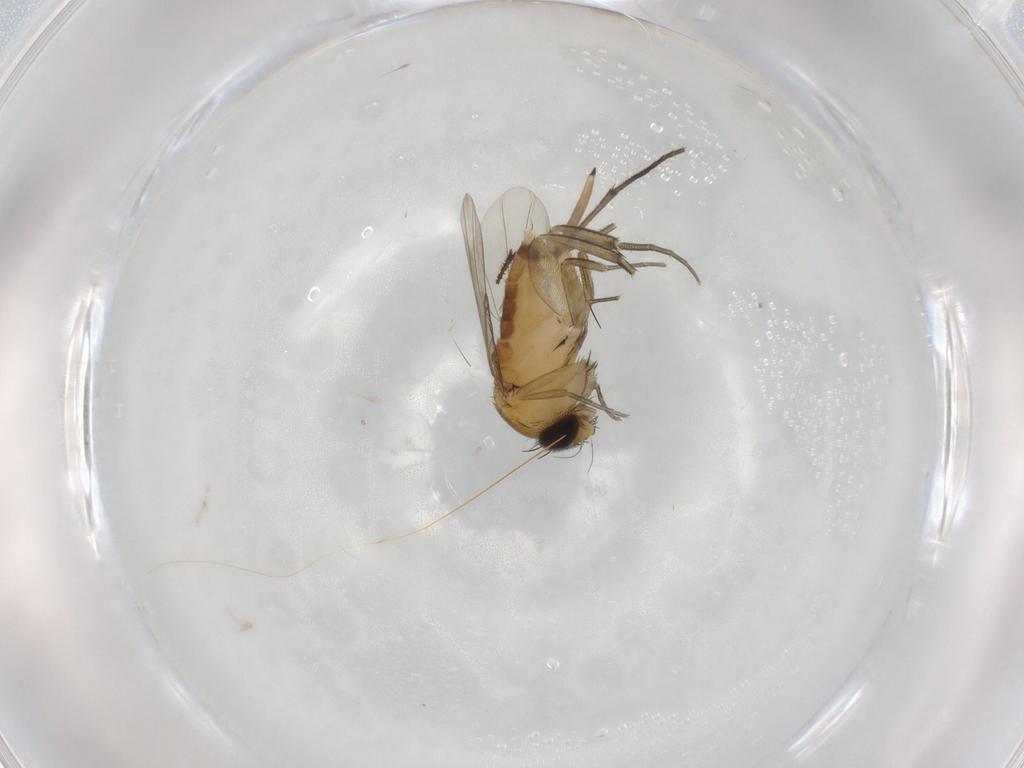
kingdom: Animalia
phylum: Arthropoda
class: Insecta
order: Diptera
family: Phoridae
